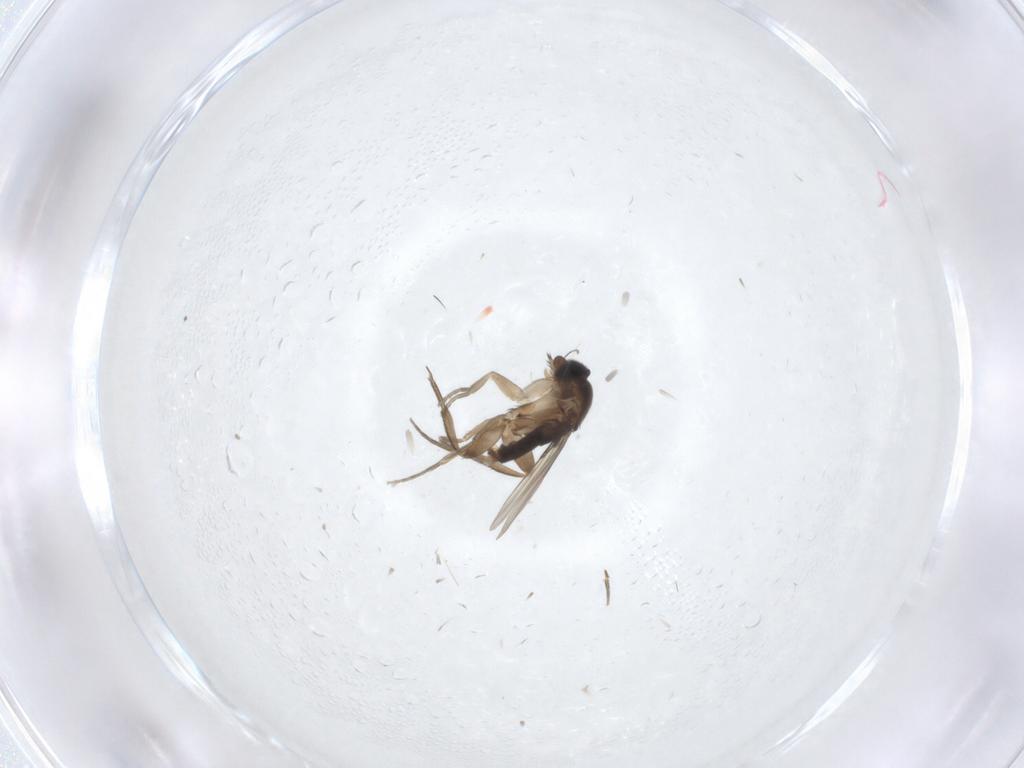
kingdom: Animalia
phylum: Arthropoda
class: Insecta
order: Diptera
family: Phoridae
